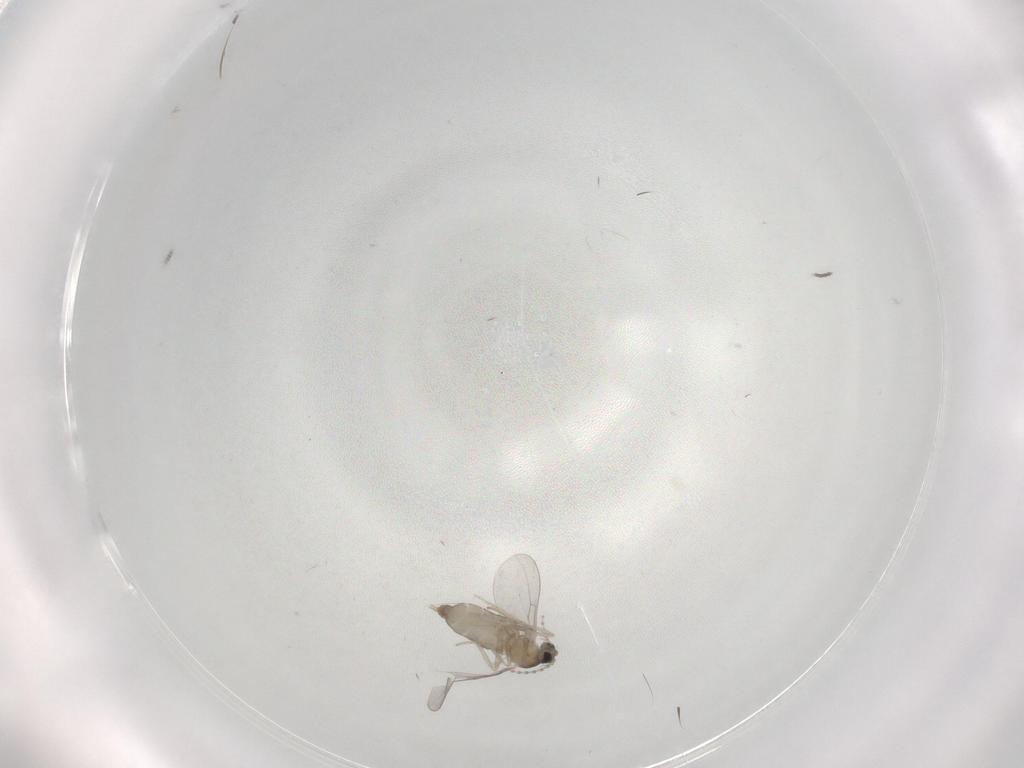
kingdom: Animalia
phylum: Arthropoda
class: Insecta
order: Diptera
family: Cecidomyiidae
